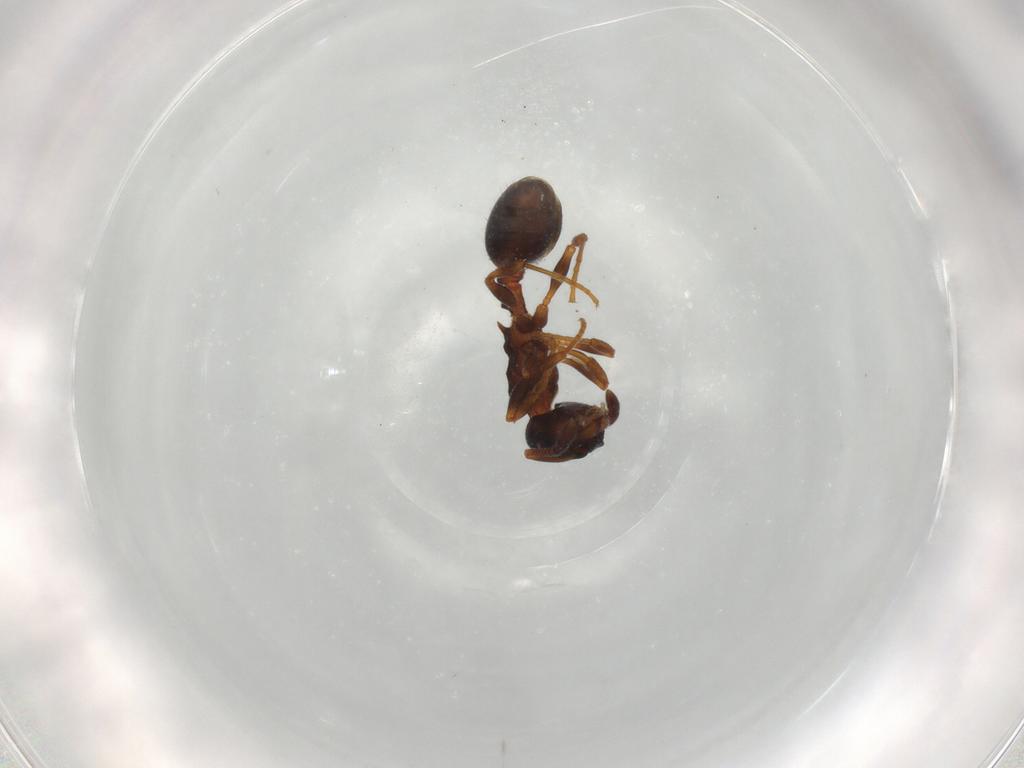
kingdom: Animalia
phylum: Arthropoda
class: Insecta
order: Hymenoptera
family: Formicidae
